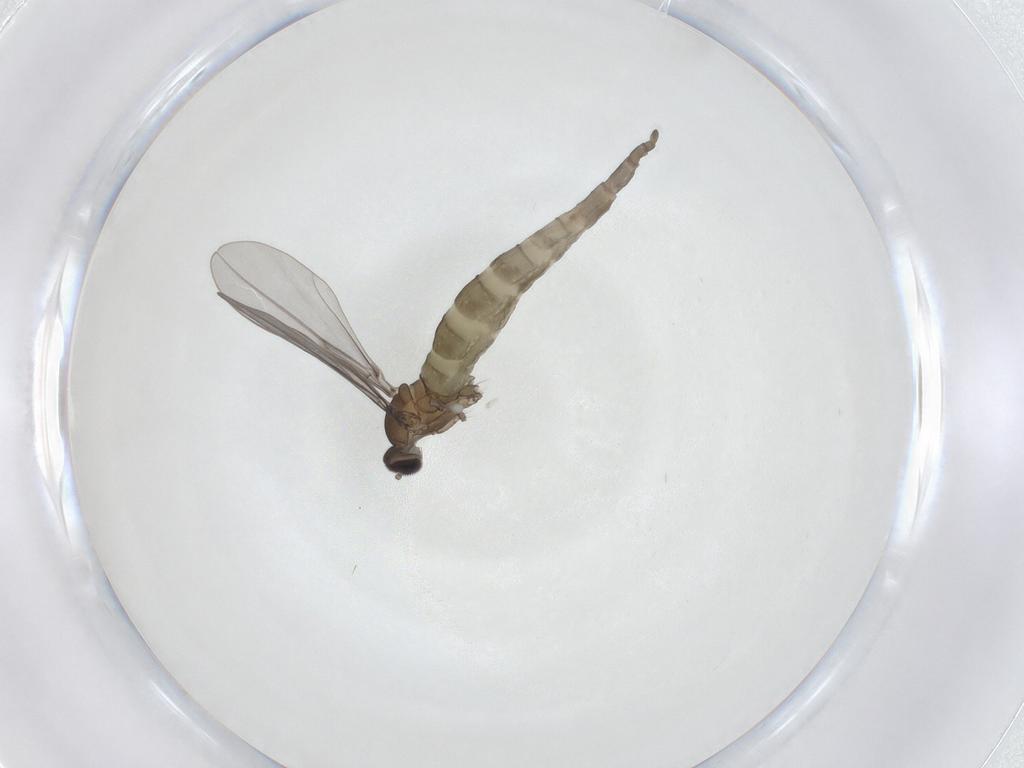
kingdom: Animalia
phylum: Arthropoda
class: Insecta
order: Diptera
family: Cecidomyiidae
